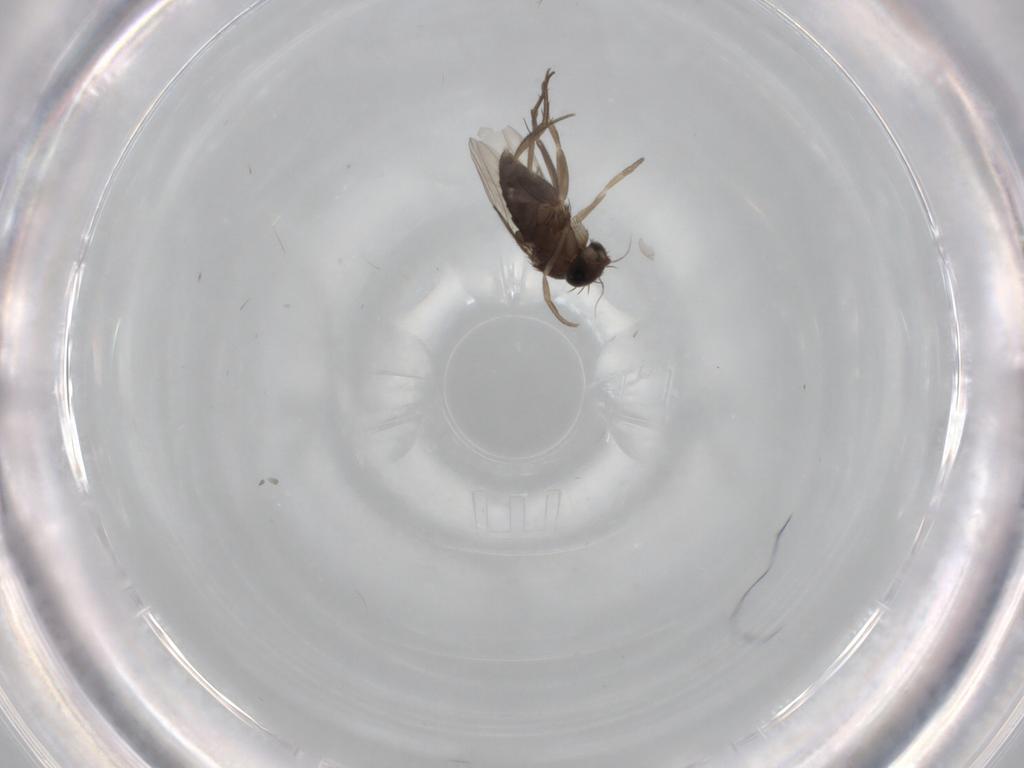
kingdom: Animalia
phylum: Arthropoda
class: Insecta
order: Diptera
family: Phoridae
